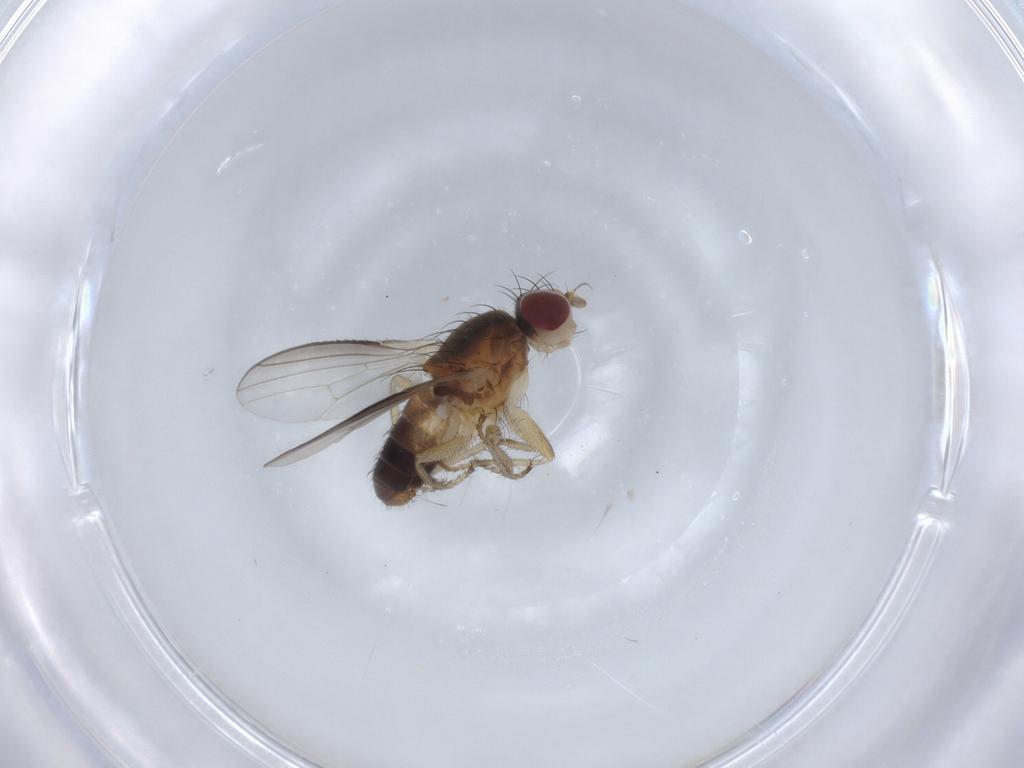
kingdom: Animalia
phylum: Arthropoda
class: Insecta
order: Diptera
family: Heleomyzidae
